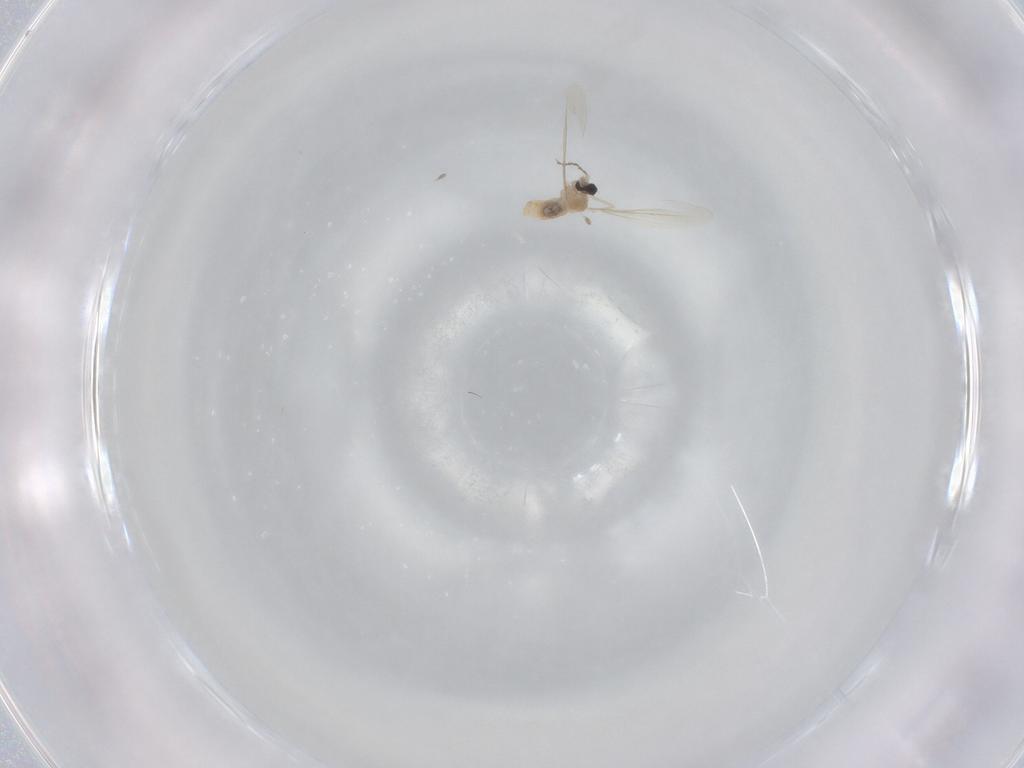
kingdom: Animalia
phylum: Arthropoda
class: Insecta
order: Diptera
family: Cecidomyiidae
